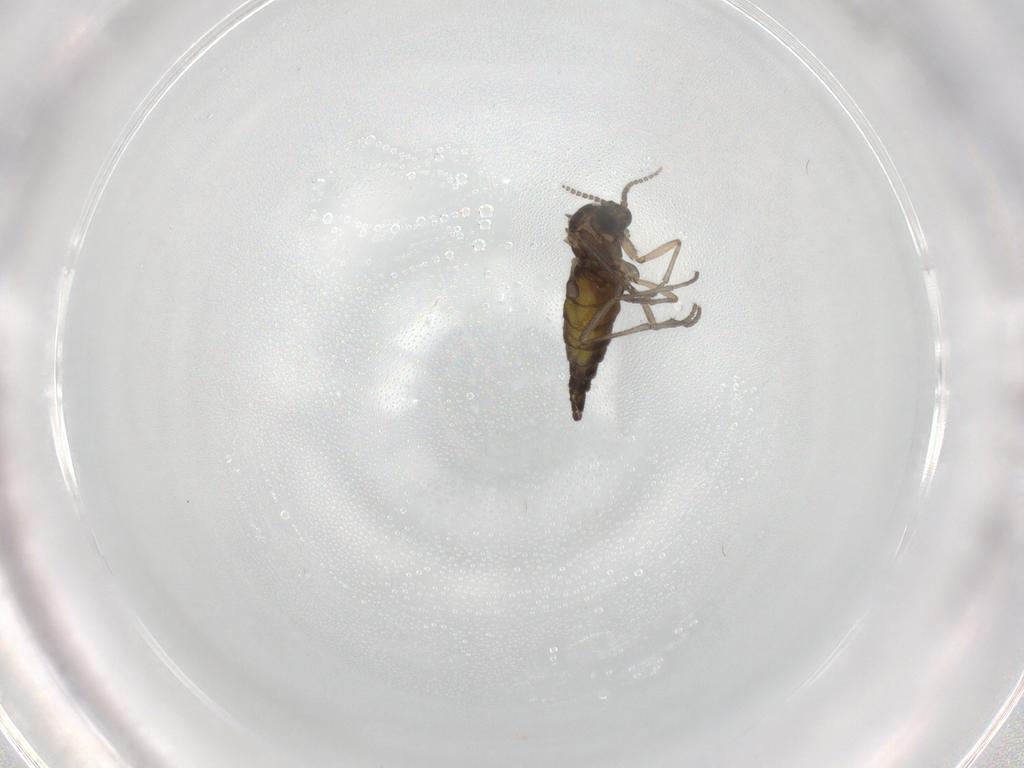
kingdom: Animalia
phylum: Arthropoda
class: Insecta
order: Diptera
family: Sciaridae
